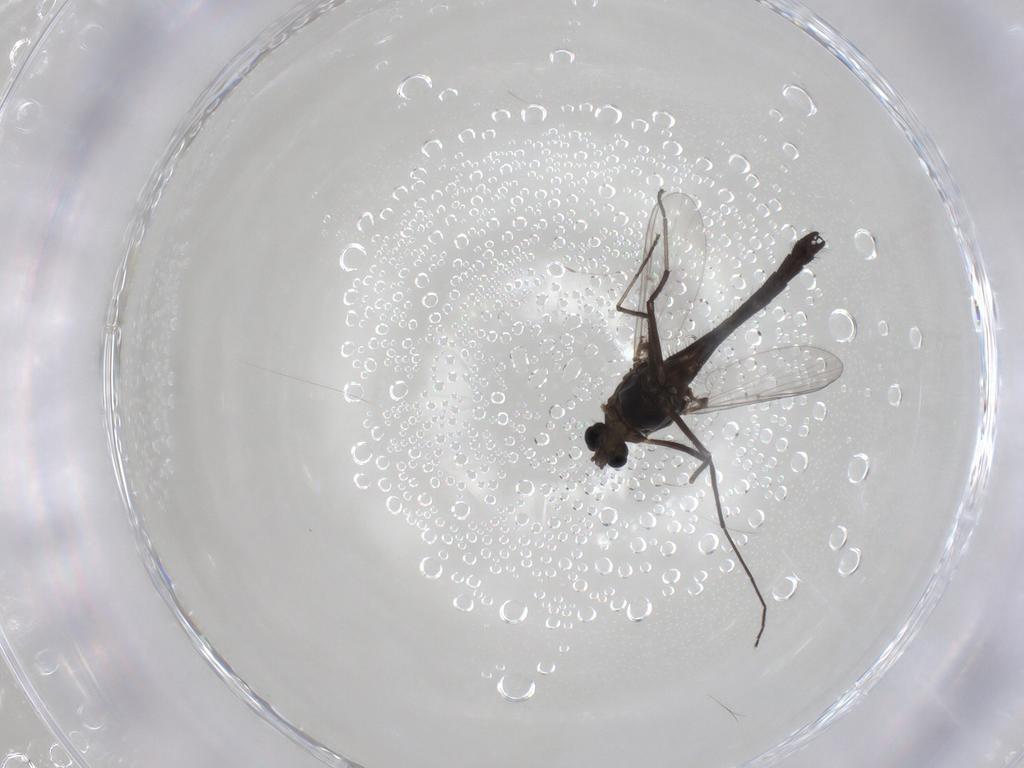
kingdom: Animalia
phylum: Arthropoda
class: Insecta
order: Diptera
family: Chironomidae
